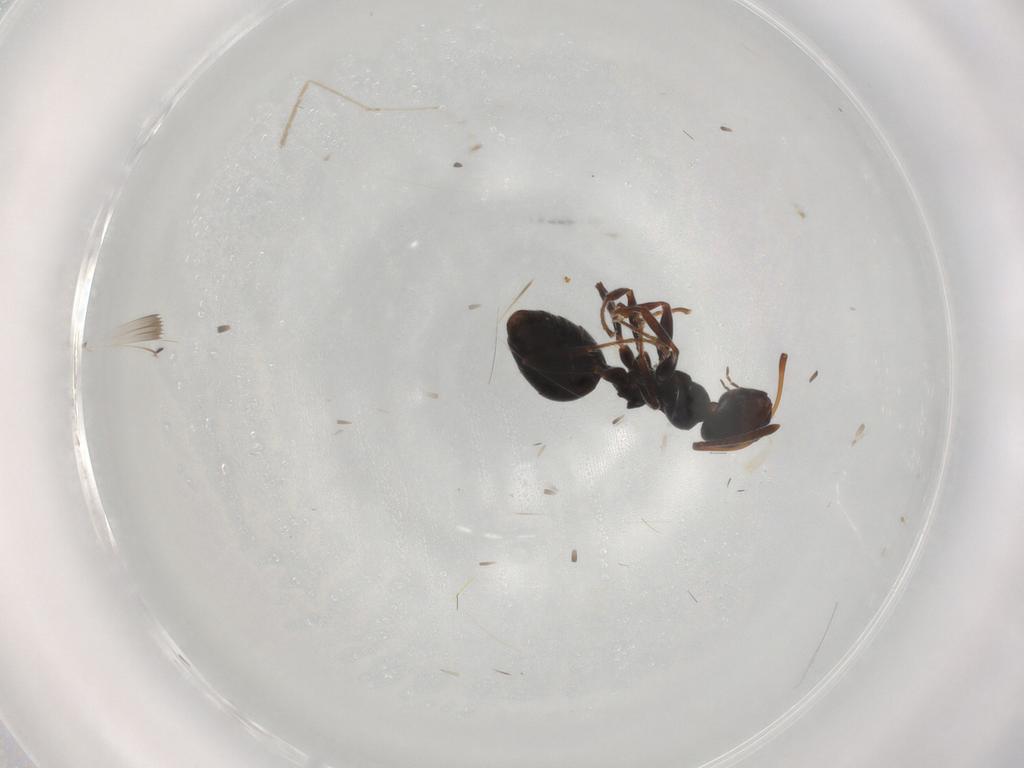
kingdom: Animalia
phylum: Arthropoda
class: Insecta
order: Hymenoptera
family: Formicidae
